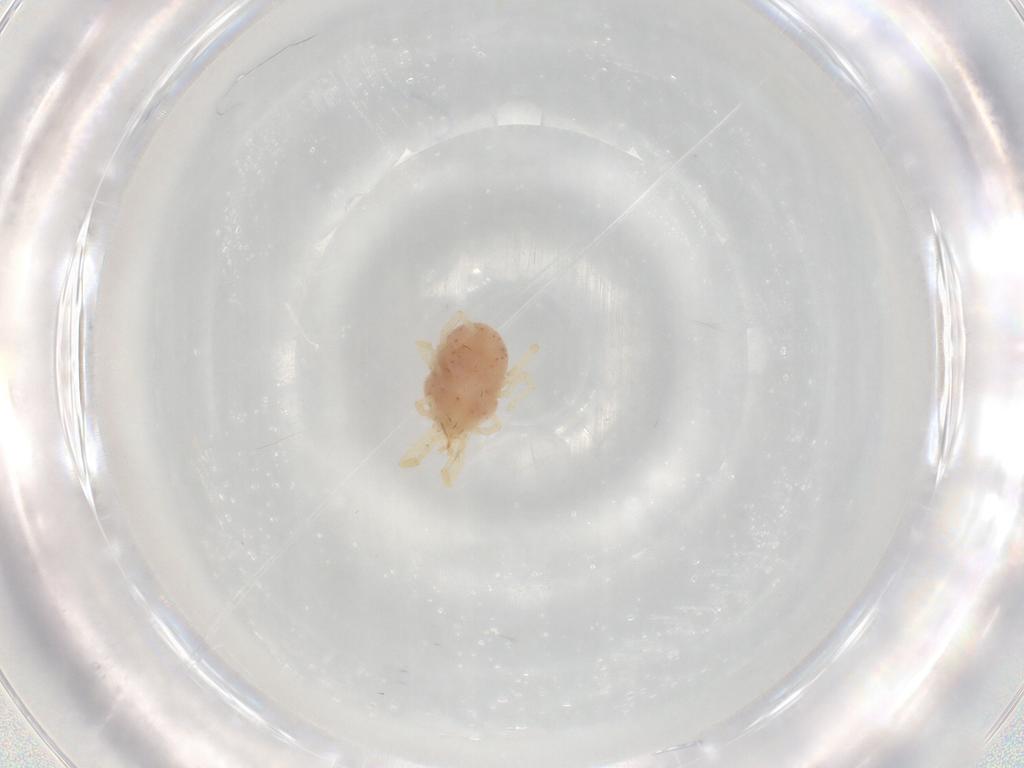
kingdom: Animalia
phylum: Arthropoda
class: Arachnida
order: Trombidiformes
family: Erythraeidae
